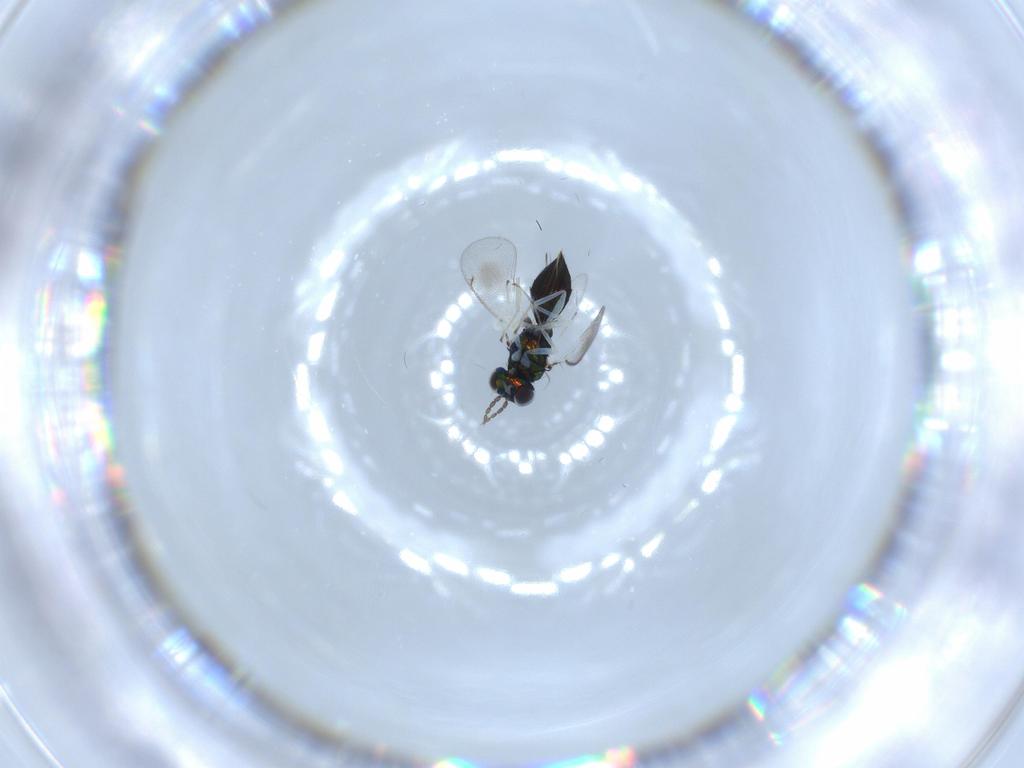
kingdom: Animalia
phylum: Arthropoda
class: Insecta
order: Hymenoptera
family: Eulophidae
